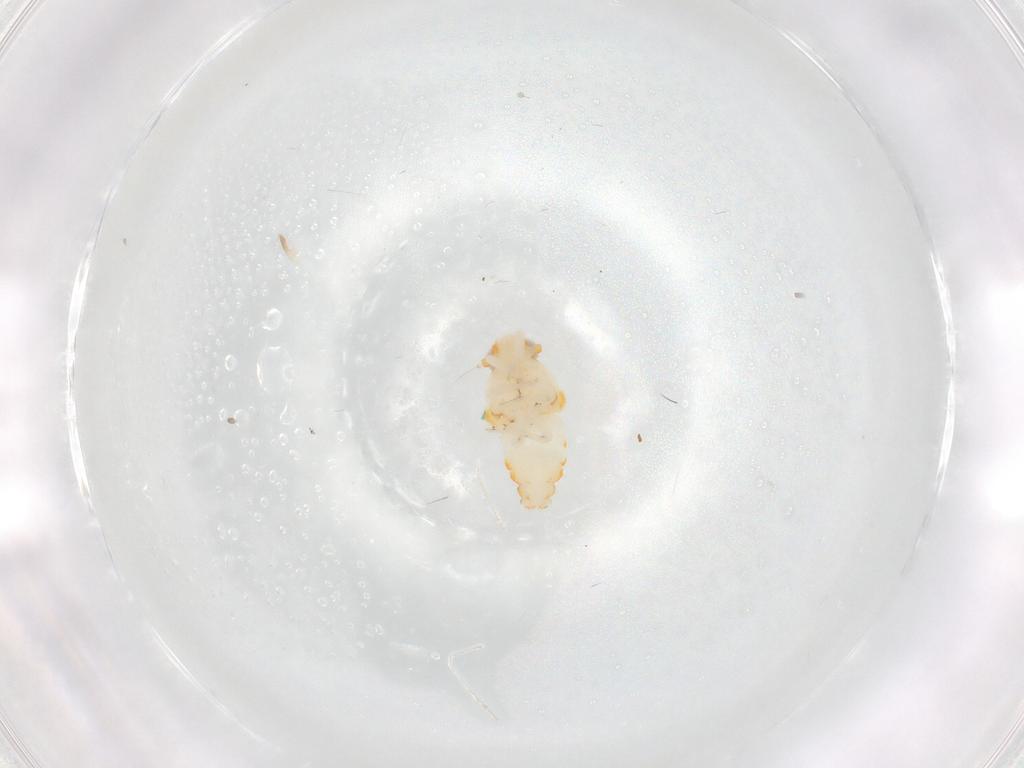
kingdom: Animalia
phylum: Arthropoda
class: Insecta
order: Hemiptera
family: Nogodinidae
